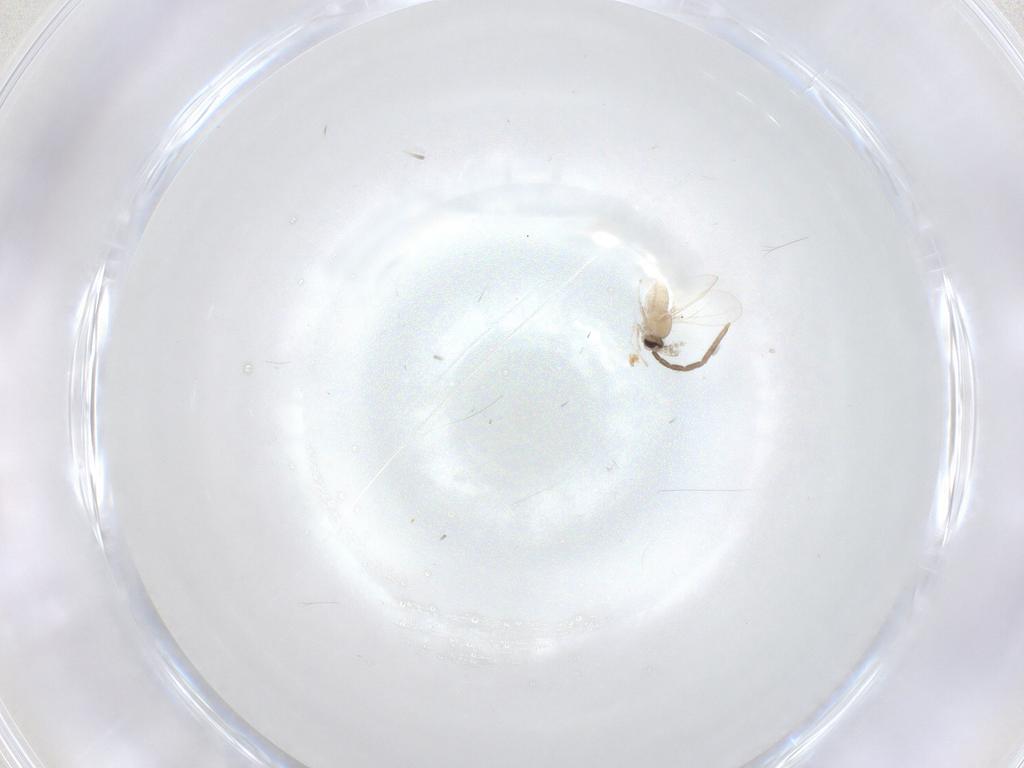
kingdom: Animalia
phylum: Arthropoda
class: Insecta
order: Diptera
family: Cecidomyiidae
